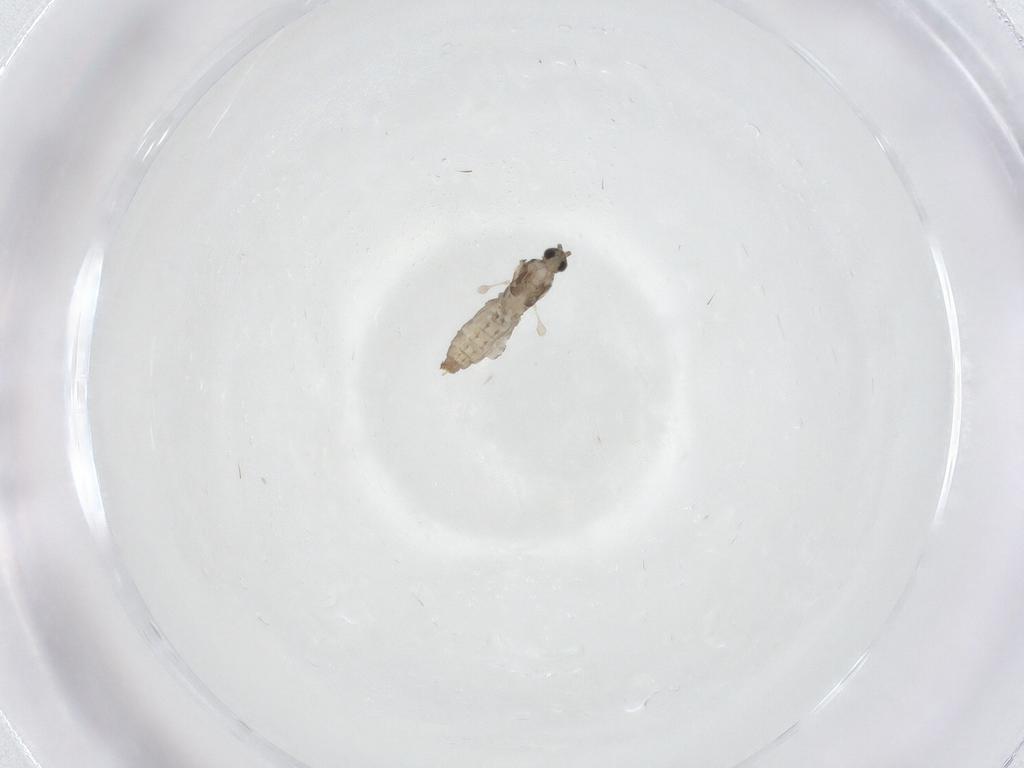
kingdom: Animalia
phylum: Arthropoda
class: Insecta
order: Diptera
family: Cecidomyiidae
